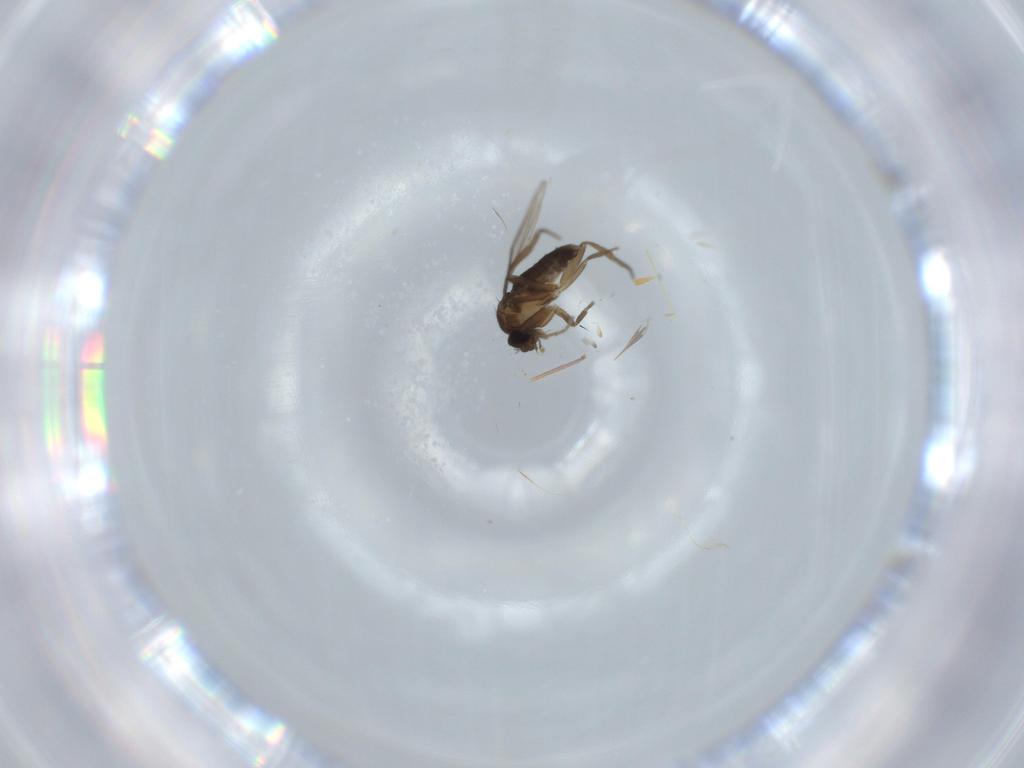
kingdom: Animalia
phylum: Arthropoda
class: Insecta
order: Diptera
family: Phoridae
